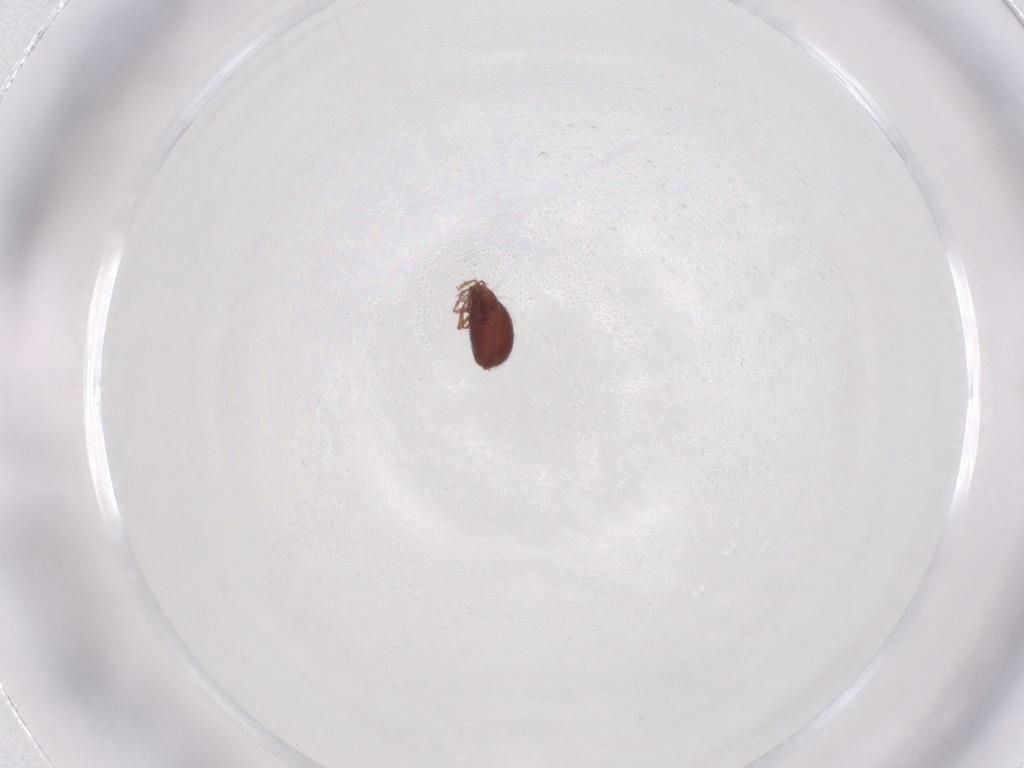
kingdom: Animalia
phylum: Arthropoda
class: Arachnida
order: Sarcoptiformes
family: Oribatulidae
